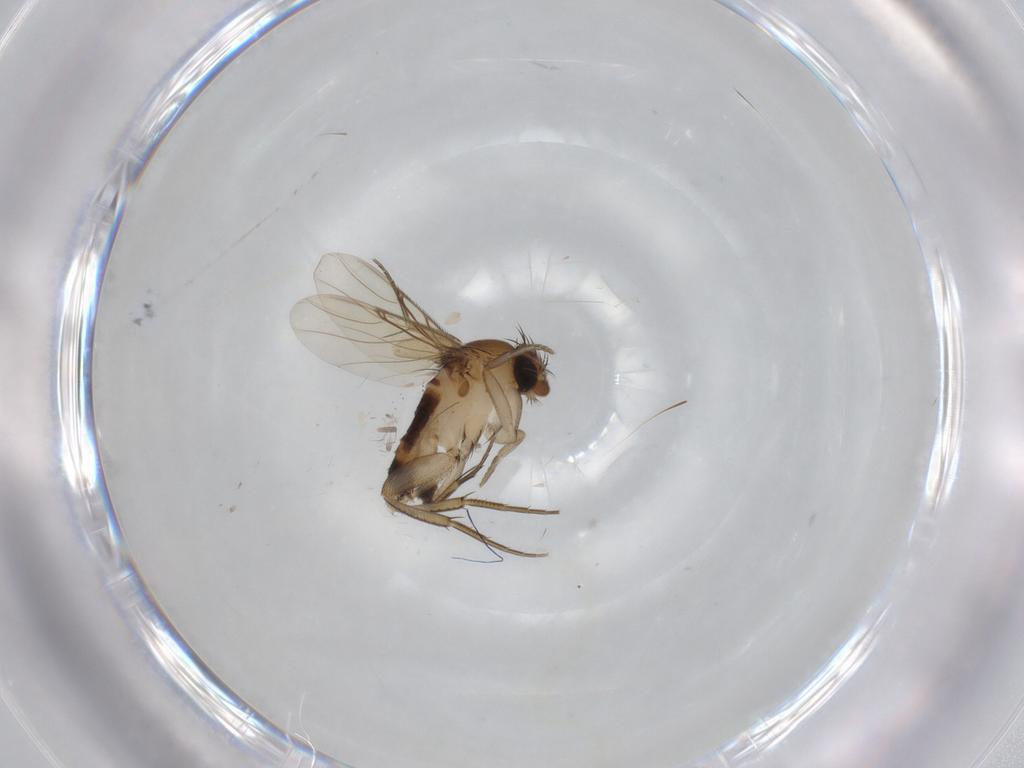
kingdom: Animalia
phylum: Arthropoda
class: Insecta
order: Diptera
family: Phoridae
